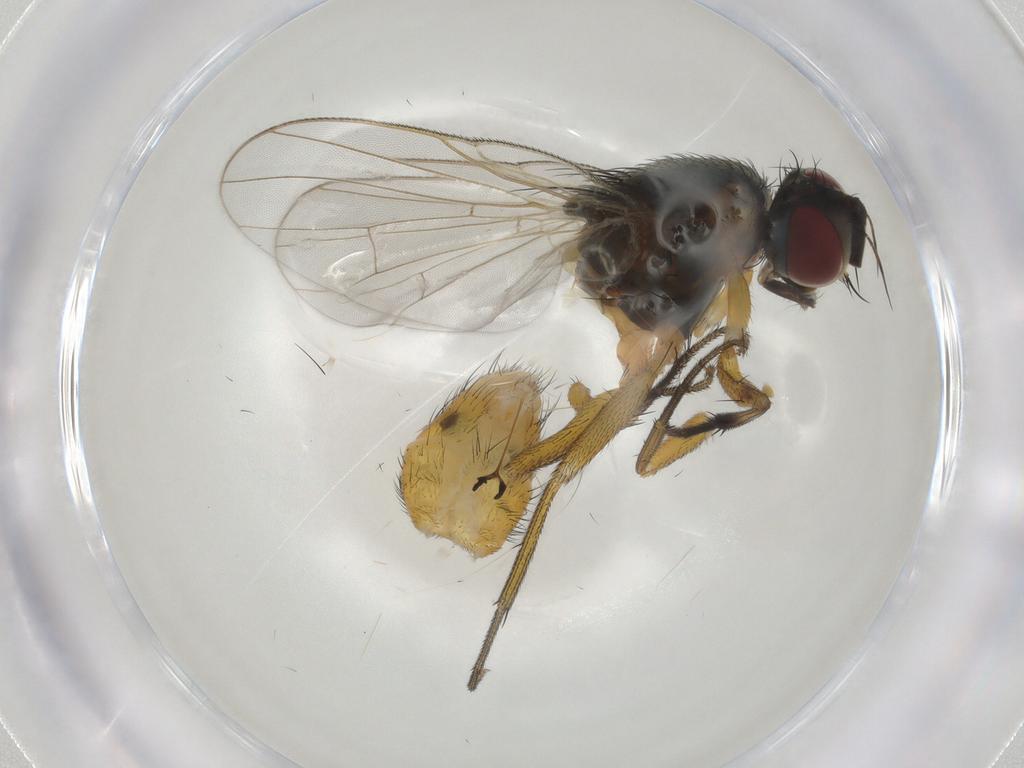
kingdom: Animalia
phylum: Arthropoda
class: Insecta
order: Diptera
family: Muscidae
